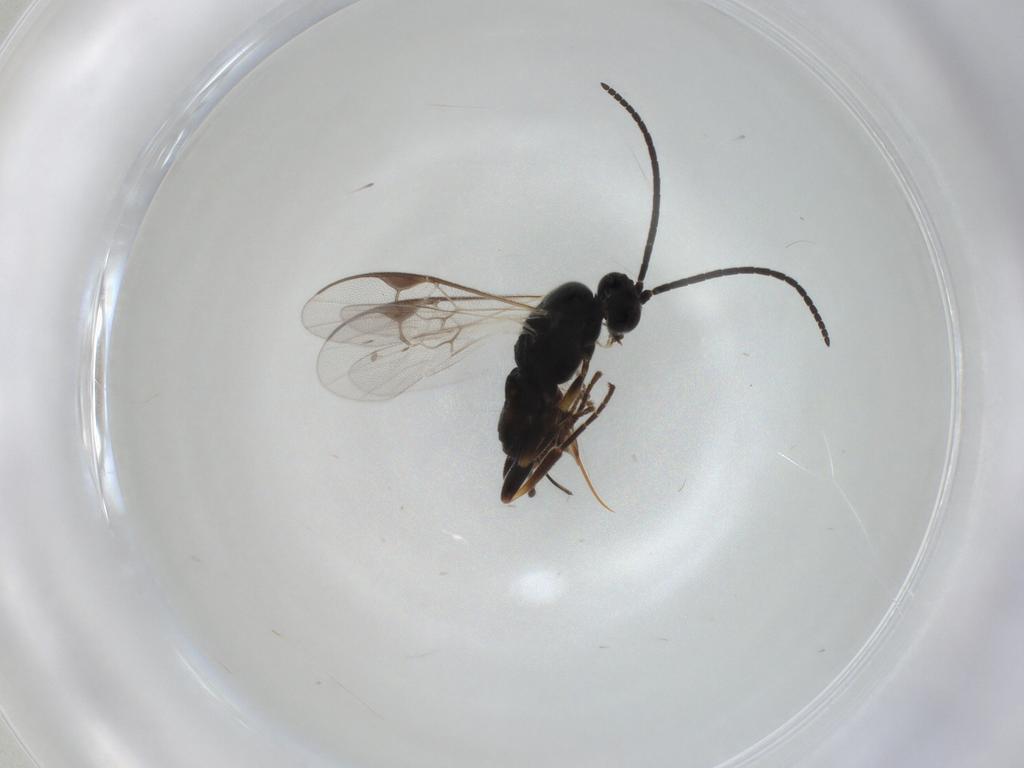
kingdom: Animalia
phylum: Arthropoda
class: Insecta
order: Hymenoptera
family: Braconidae
